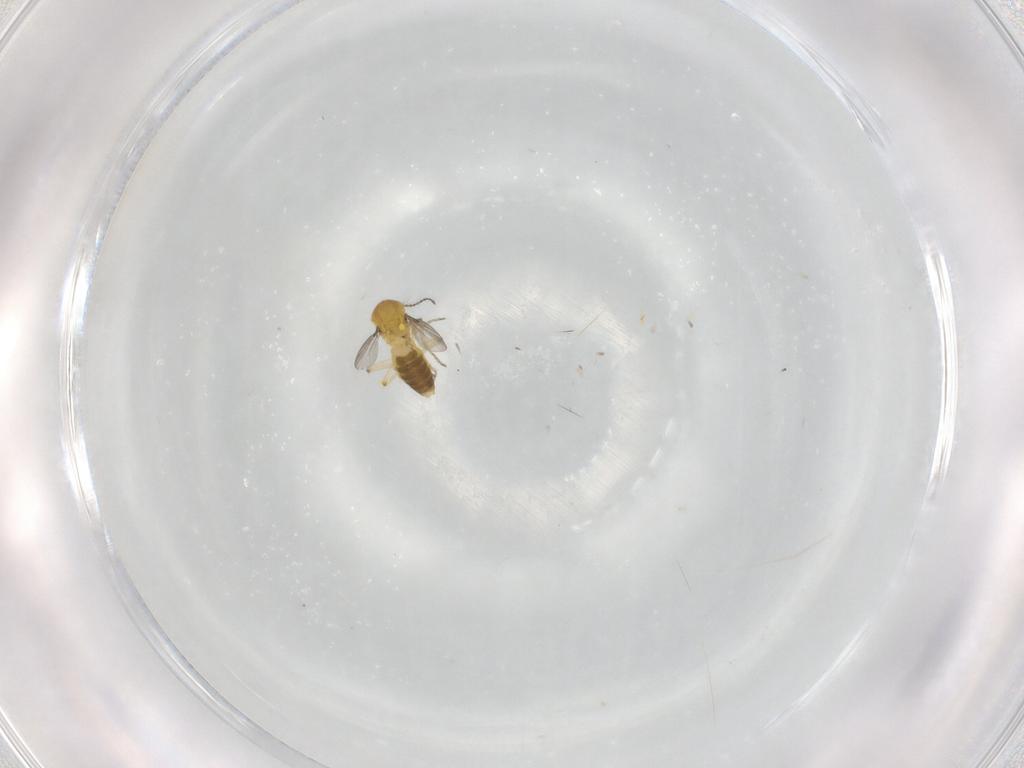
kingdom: Animalia
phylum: Arthropoda
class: Insecta
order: Diptera
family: Ceratopogonidae
